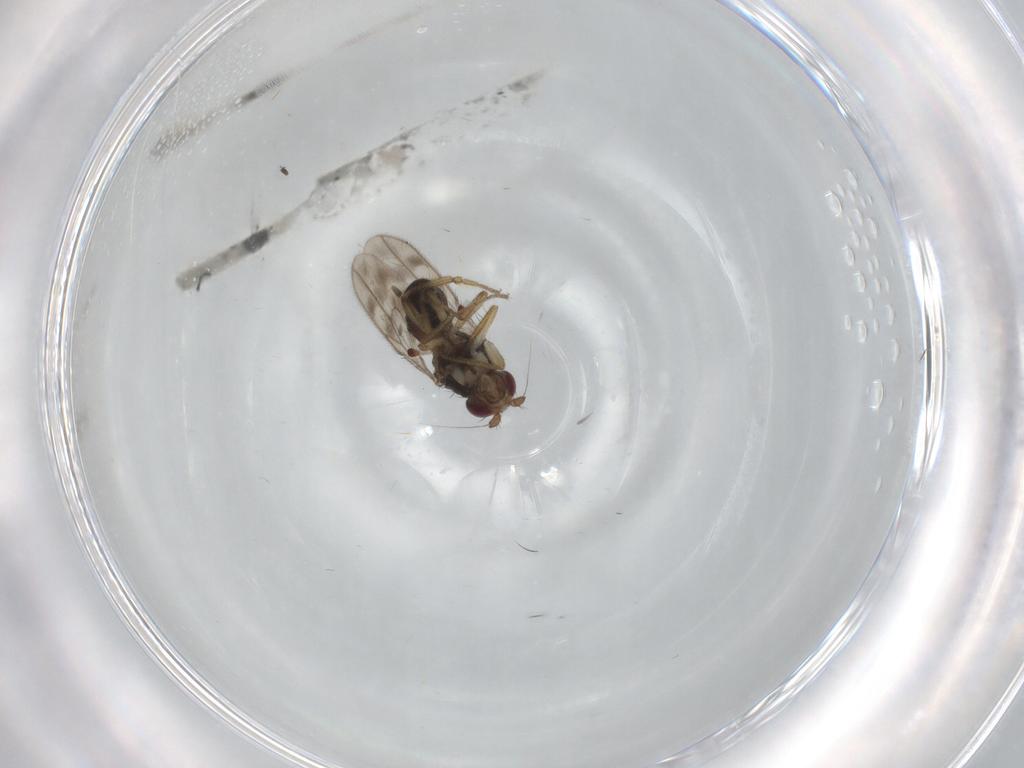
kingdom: Animalia
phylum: Arthropoda
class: Insecta
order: Diptera
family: Dolichopodidae
